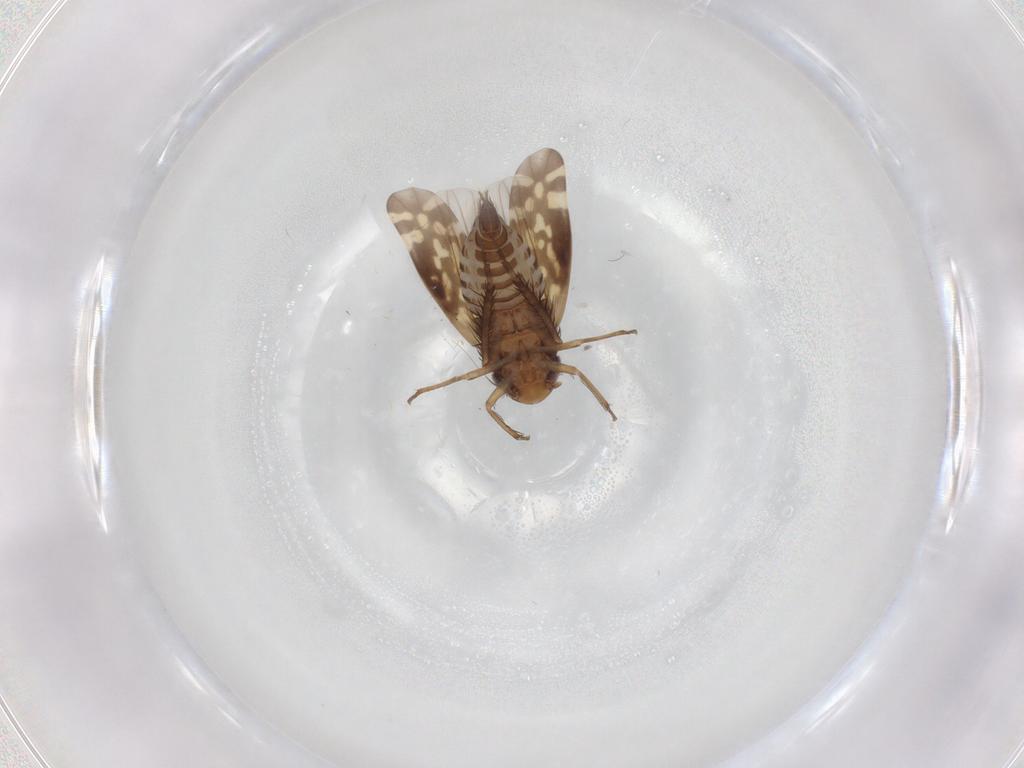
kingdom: Animalia
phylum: Arthropoda
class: Insecta
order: Hemiptera
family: Cicadellidae
